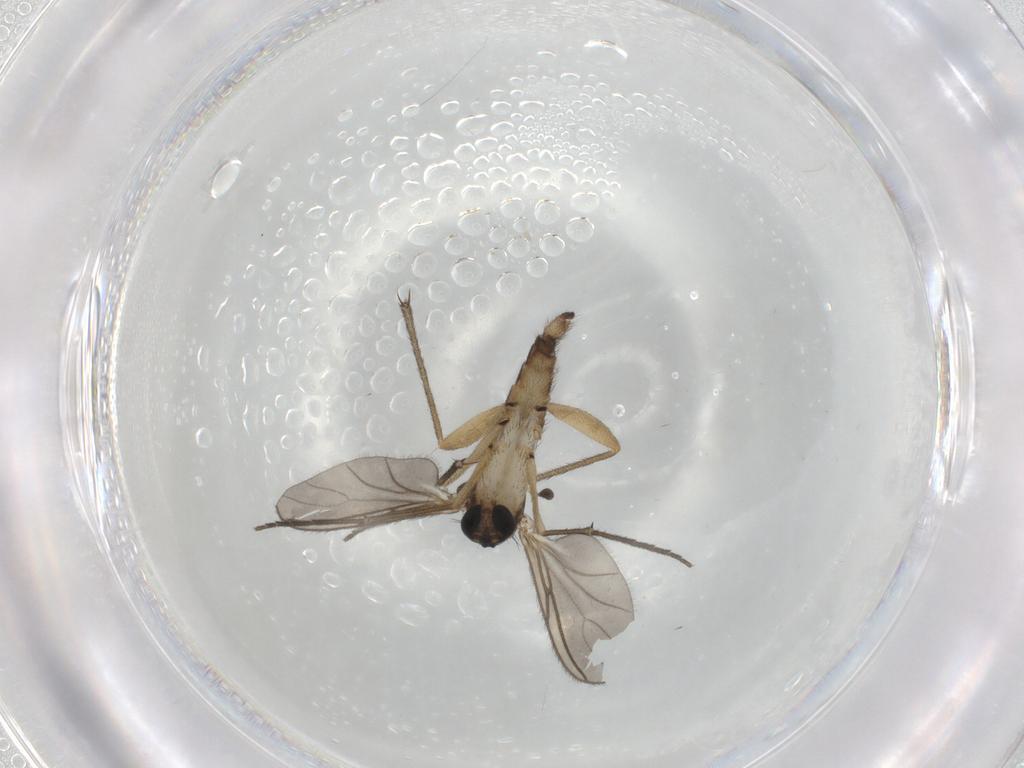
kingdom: Animalia
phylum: Arthropoda
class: Insecta
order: Diptera
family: Sciaridae
